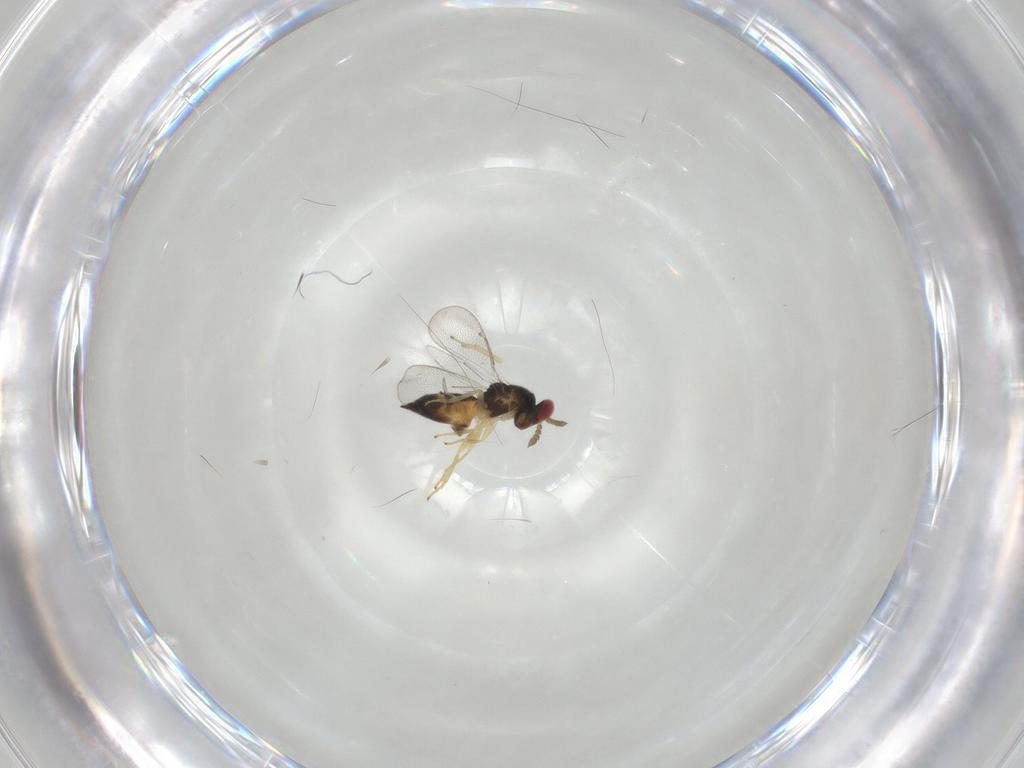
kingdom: Animalia
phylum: Arthropoda
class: Insecta
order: Hymenoptera
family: Eulophidae
